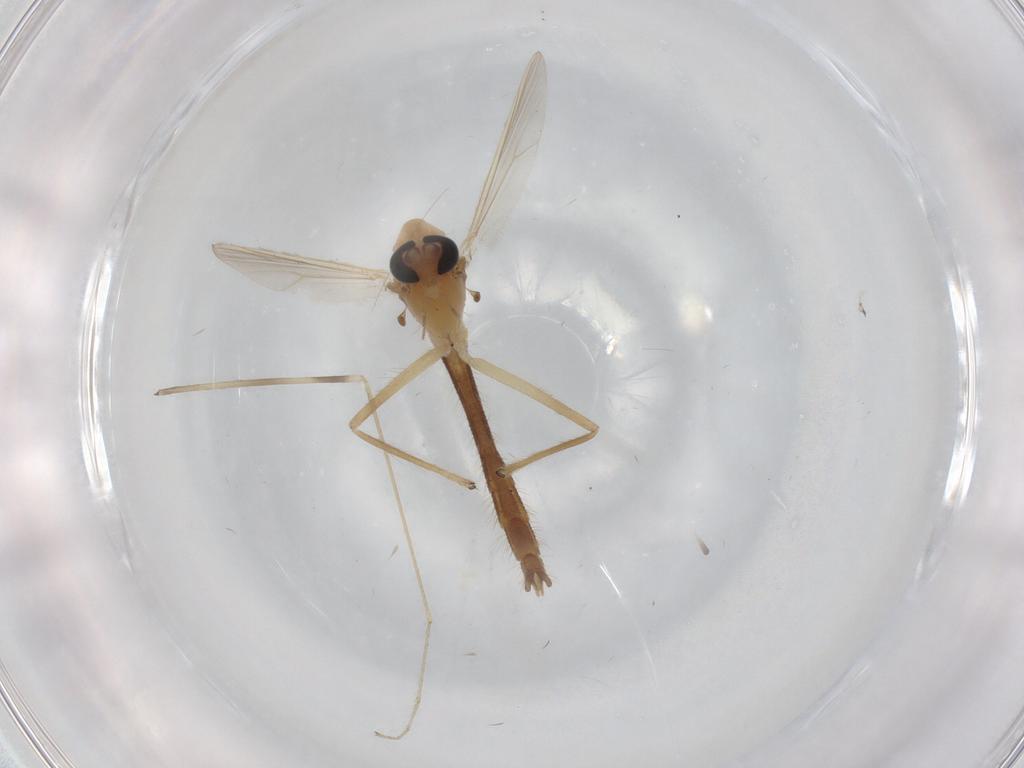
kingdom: Animalia
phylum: Arthropoda
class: Insecta
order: Diptera
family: Chironomidae
